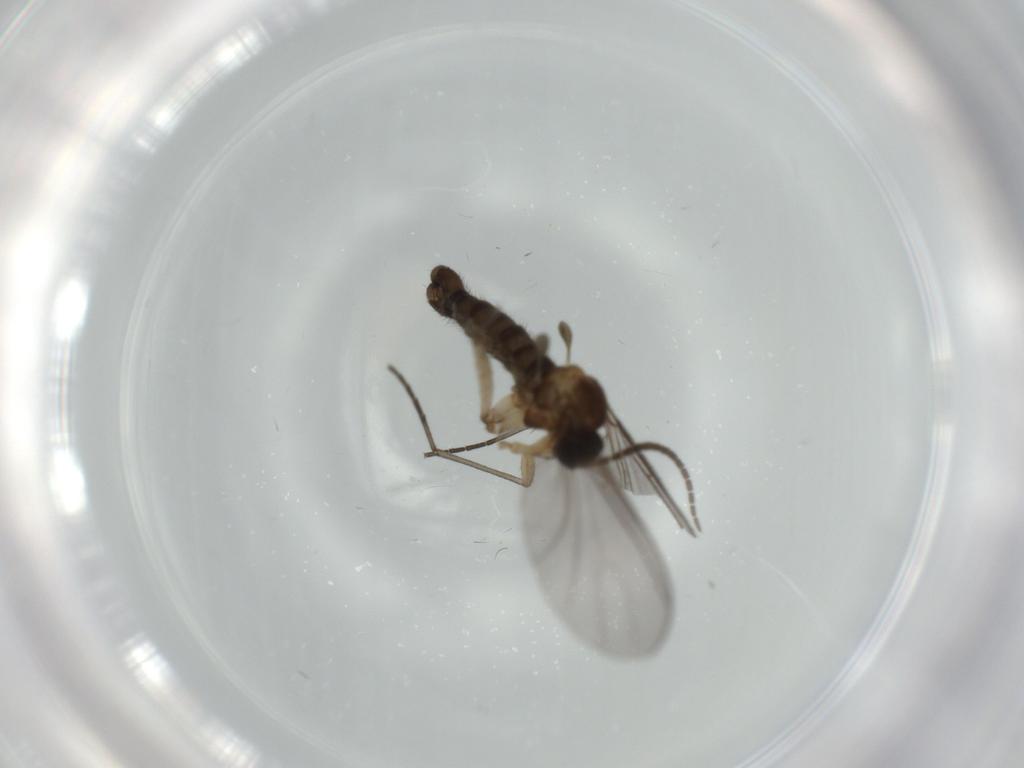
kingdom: Animalia
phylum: Arthropoda
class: Insecta
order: Diptera
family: Sciaridae
